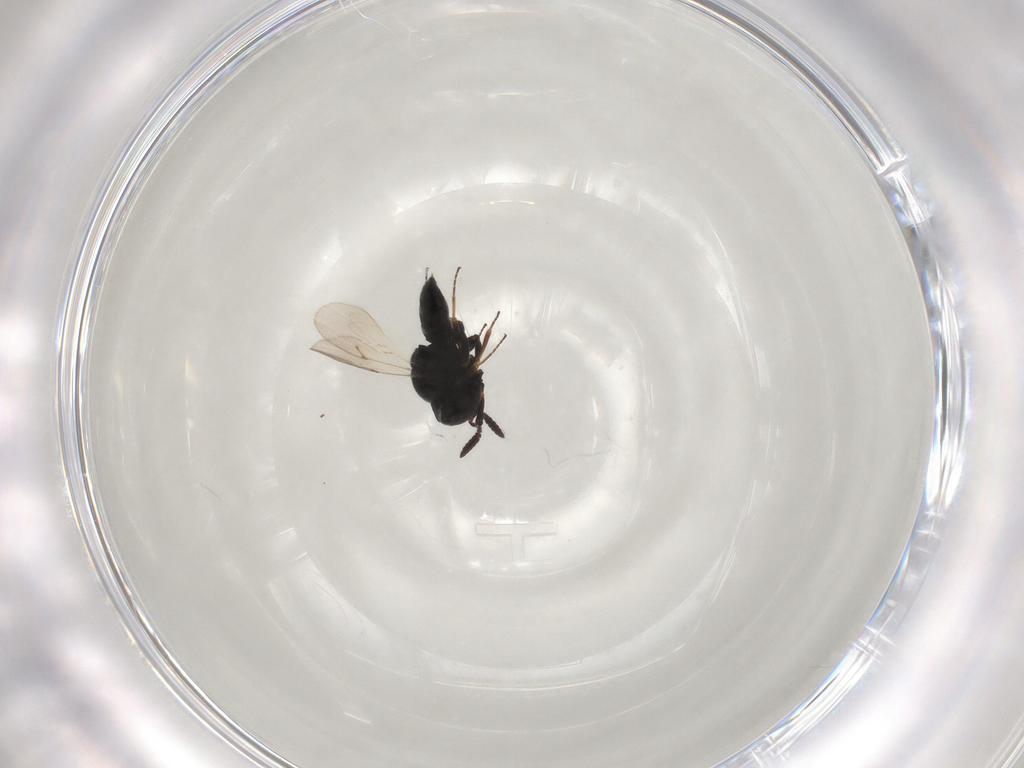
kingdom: Animalia
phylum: Arthropoda
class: Insecta
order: Hymenoptera
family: Scelionidae
